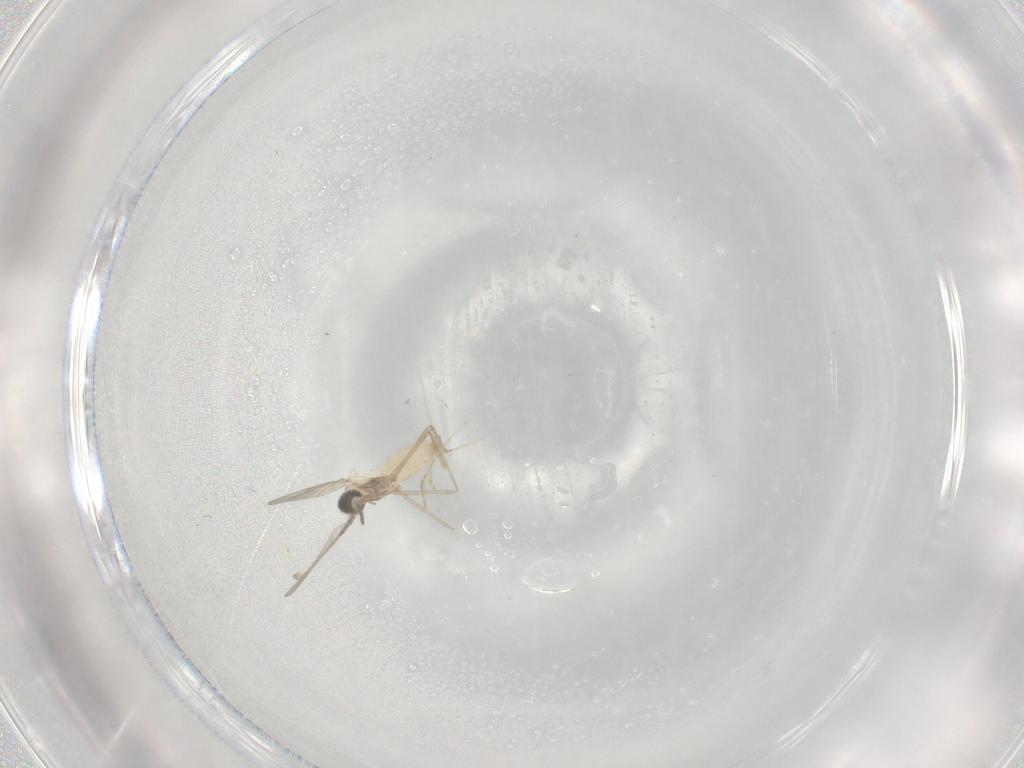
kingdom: Animalia
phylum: Arthropoda
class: Insecta
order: Diptera
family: Cecidomyiidae
